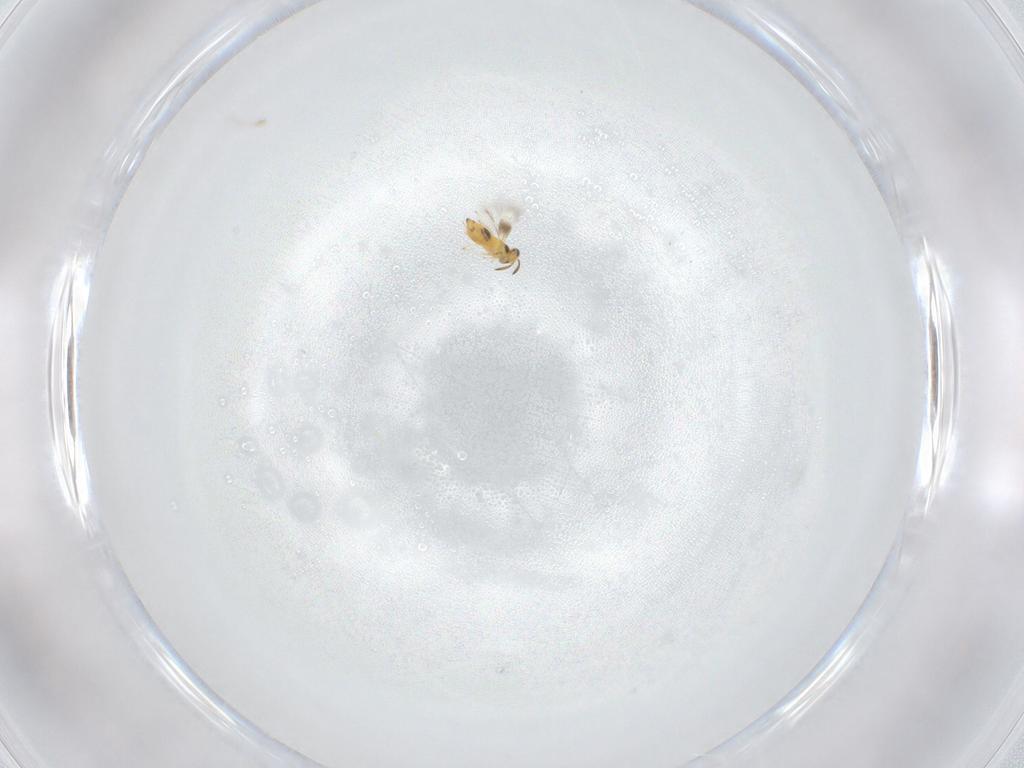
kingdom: Animalia
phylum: Arthropoda
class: Insecta
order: Hymenoptera
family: Signiphoridae
